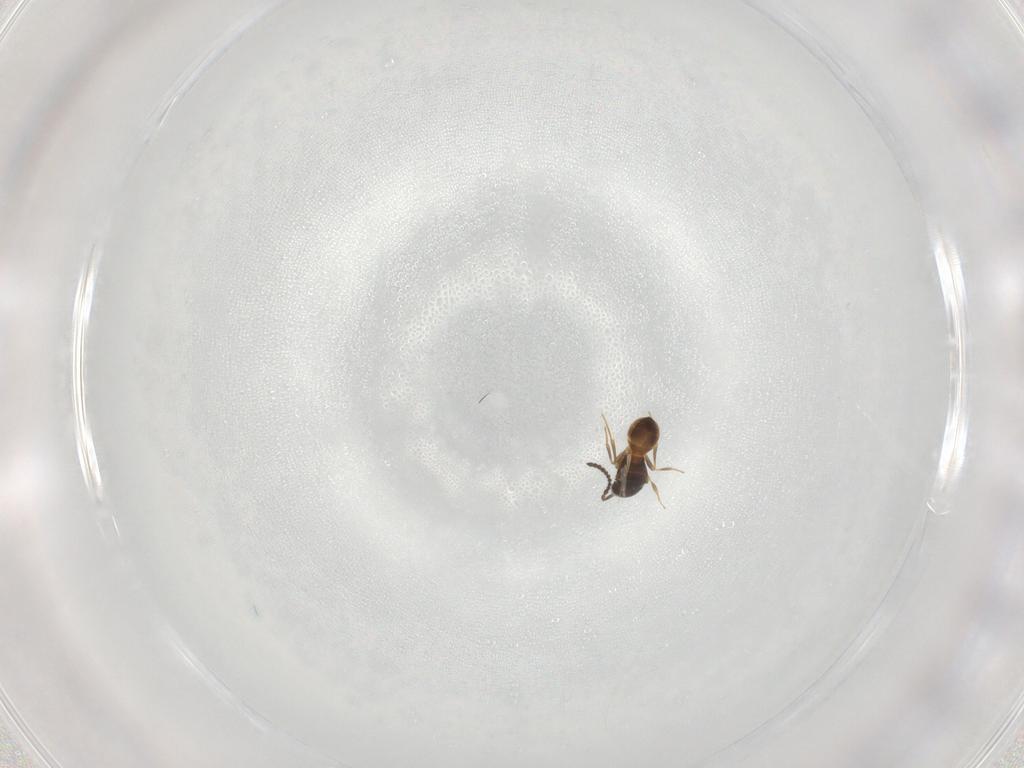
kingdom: Animalia
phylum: Arthropoda
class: Insecta
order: Hymenoptera
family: Scelionidae
